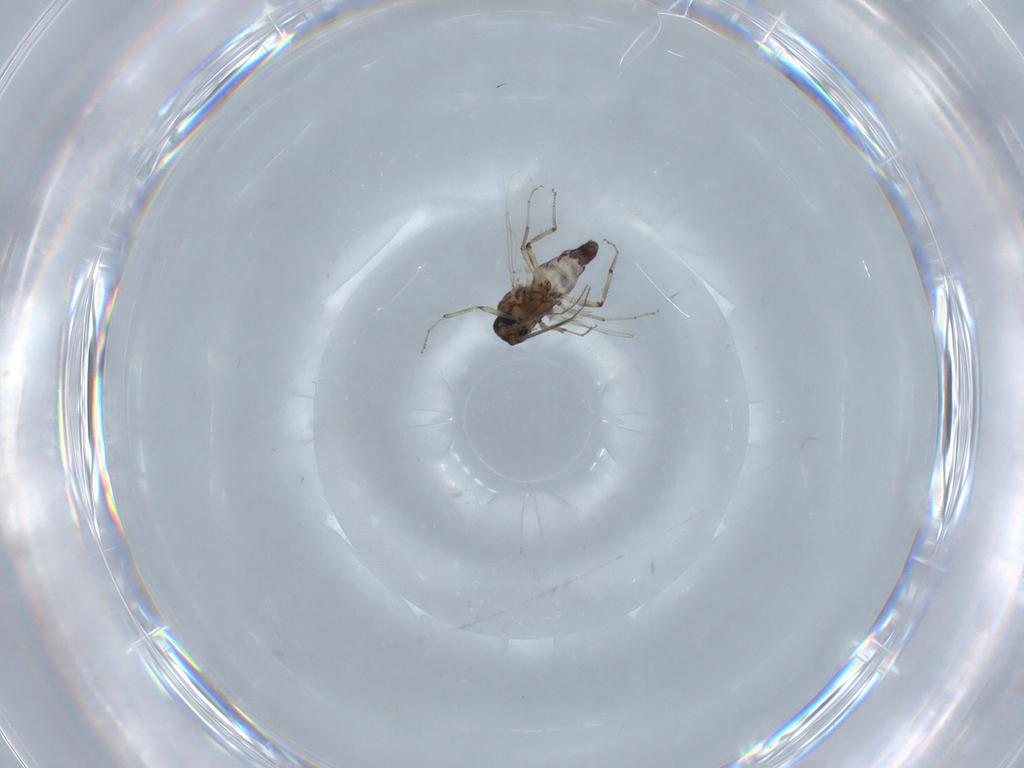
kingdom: Animalia
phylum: Arthropoda
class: Insecta
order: Diptera
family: Ceratopogonidae
